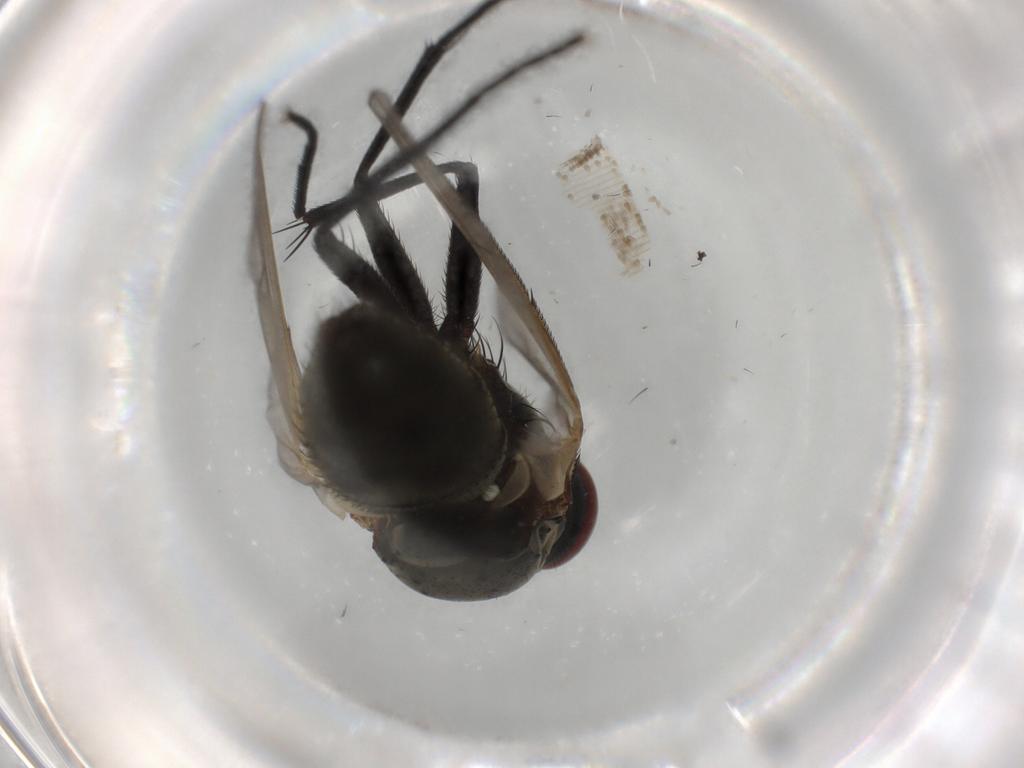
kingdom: Animalia
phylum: Arthropoda
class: Insecta
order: Diptera
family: Muscidae
